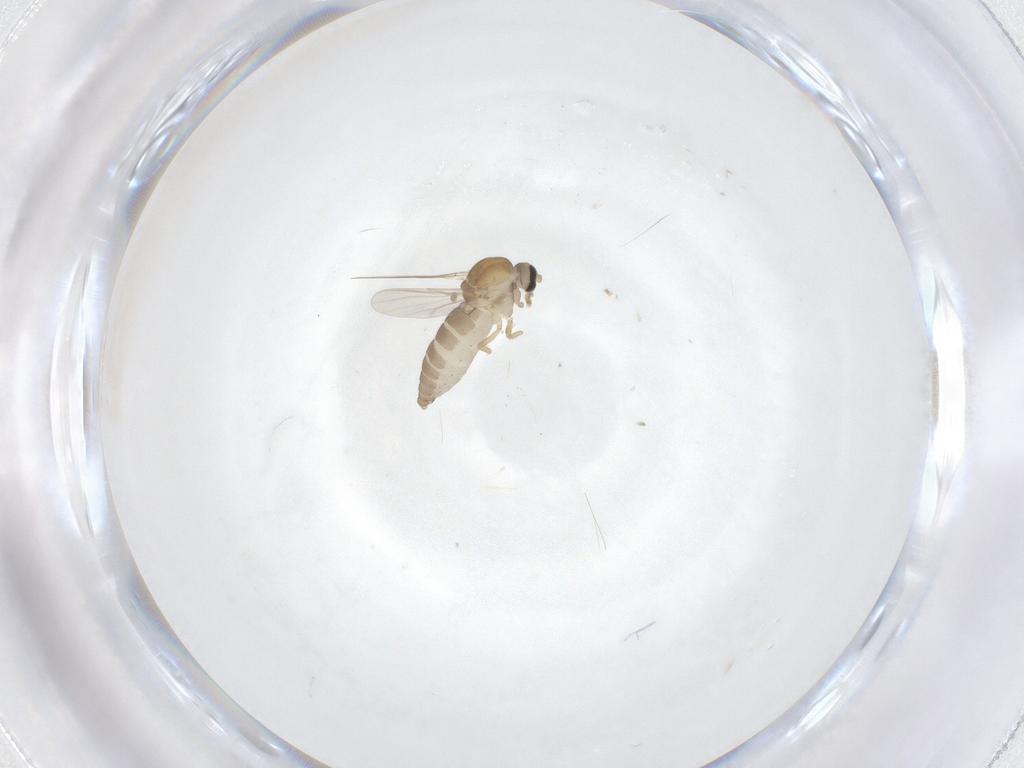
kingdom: Animalia
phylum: Arthropoda
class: Insecta
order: Diptera
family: Ceratopogonidae
